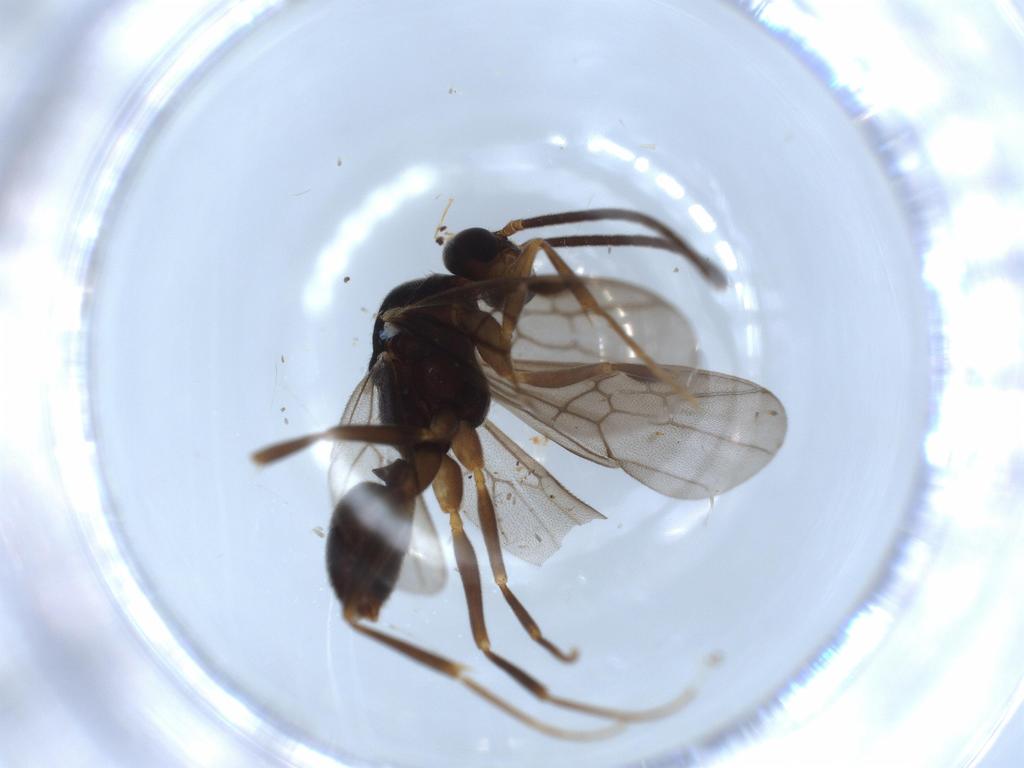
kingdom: Animalia
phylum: Arthropoda
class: Insecta
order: Hymenoptera
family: Formicidae
